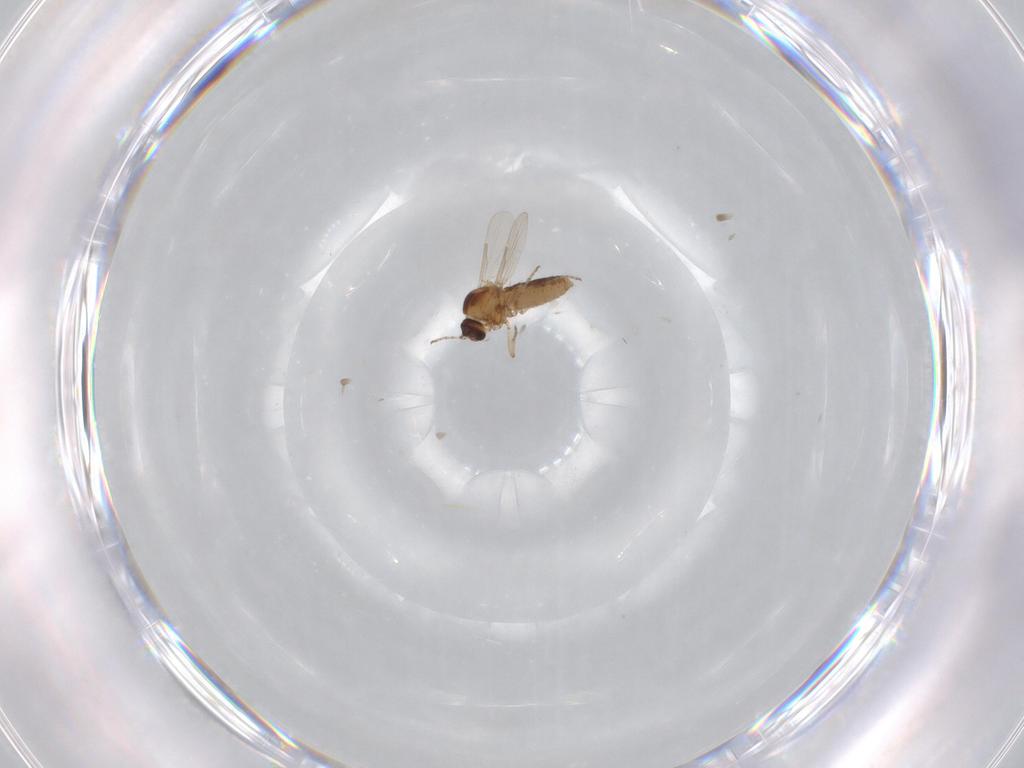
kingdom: Animalia
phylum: Arthropoda
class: Insecta
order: Diptera
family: Ceratopogonidae
